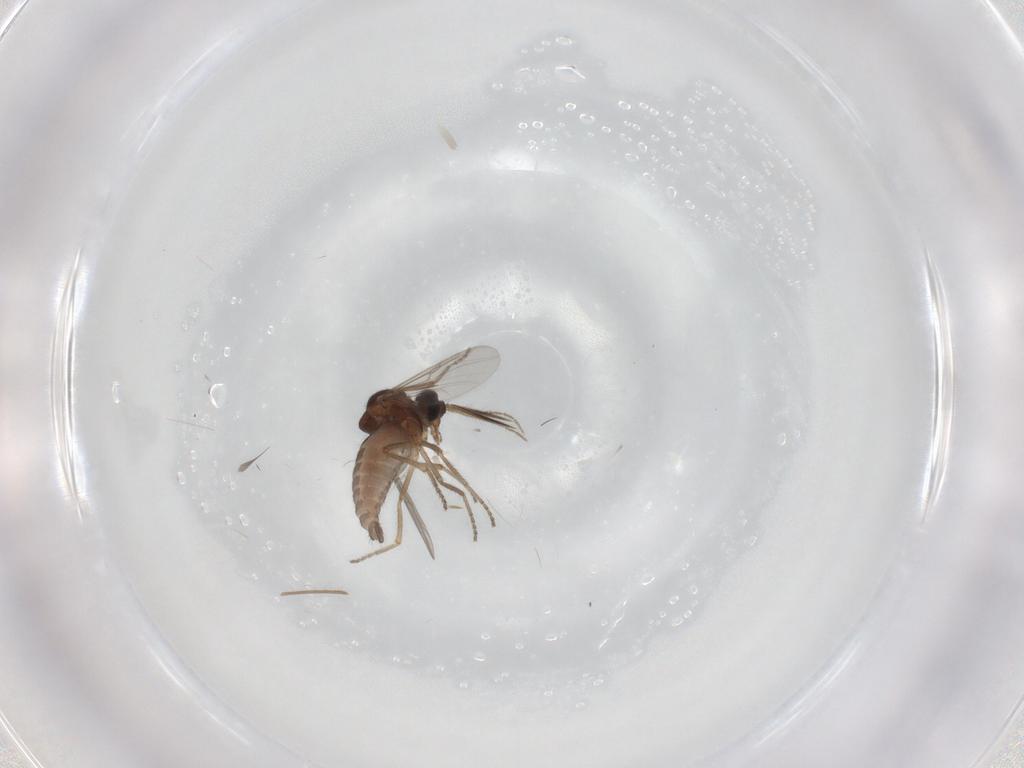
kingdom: Animalia
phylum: Arthropoda
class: Insecta
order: Diptera
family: Ceratopogonidae
